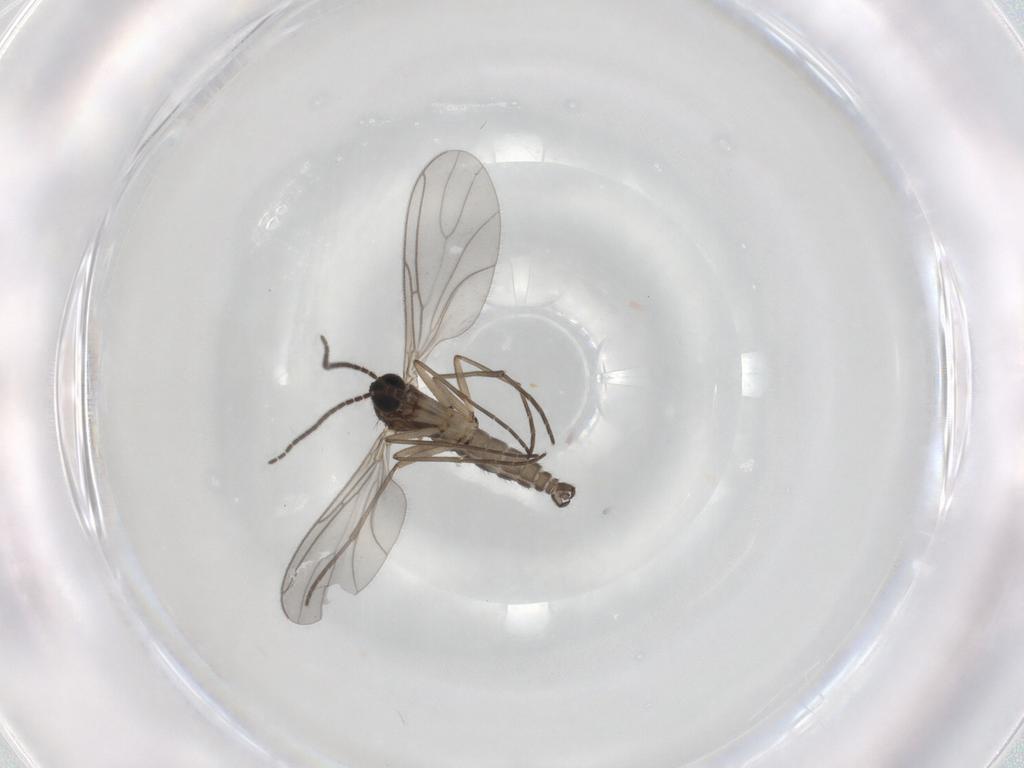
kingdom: Animalia
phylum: Arthropoda
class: Insecta
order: Diptera
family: Sciaridae
